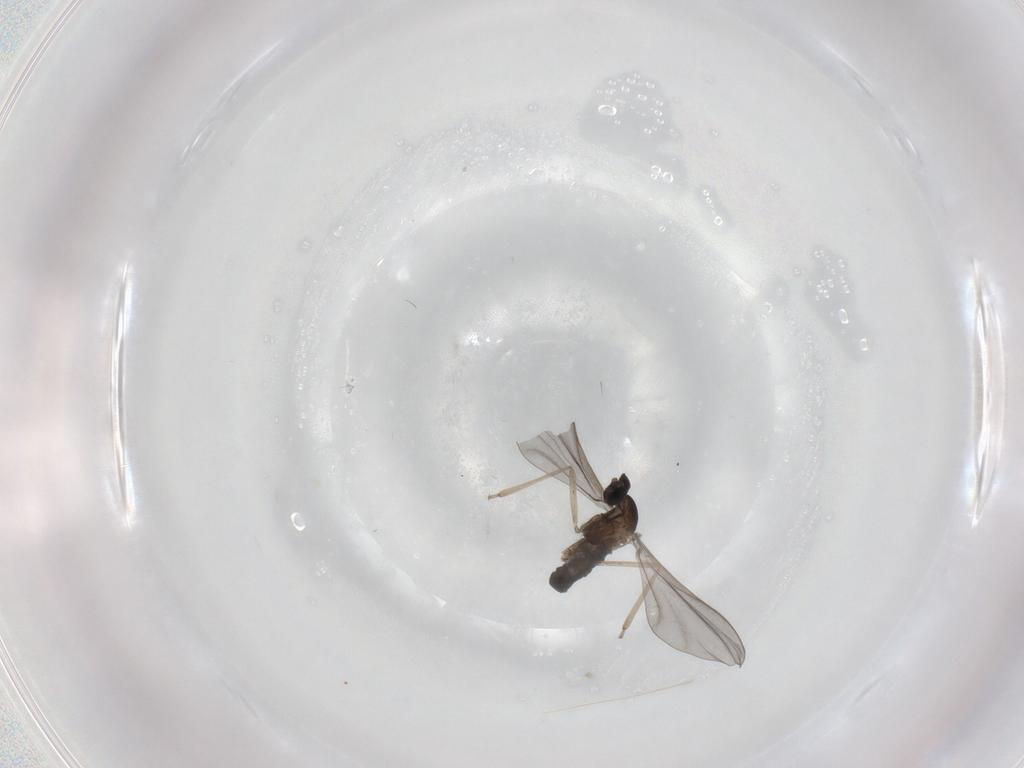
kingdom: Animalia
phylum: Arthropoda
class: Insecta
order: Diptera
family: Cecidomyiidae
